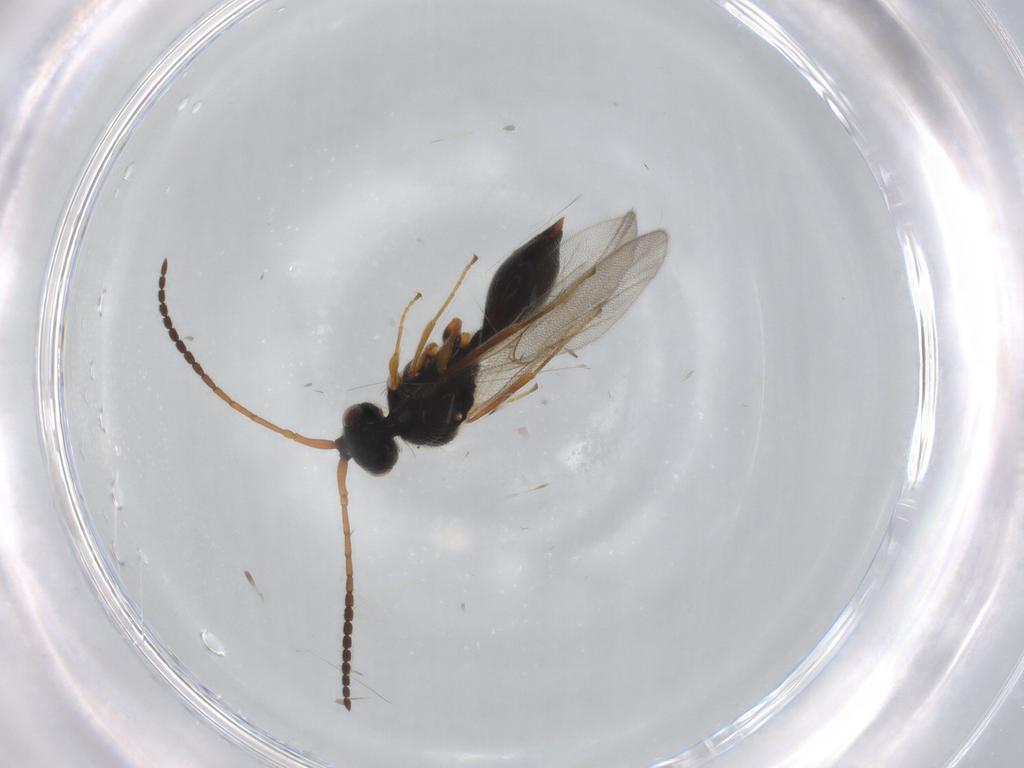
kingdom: Animalia
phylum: Arthropoda
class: Insecta
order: Hymenoptera
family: Diapriidae
